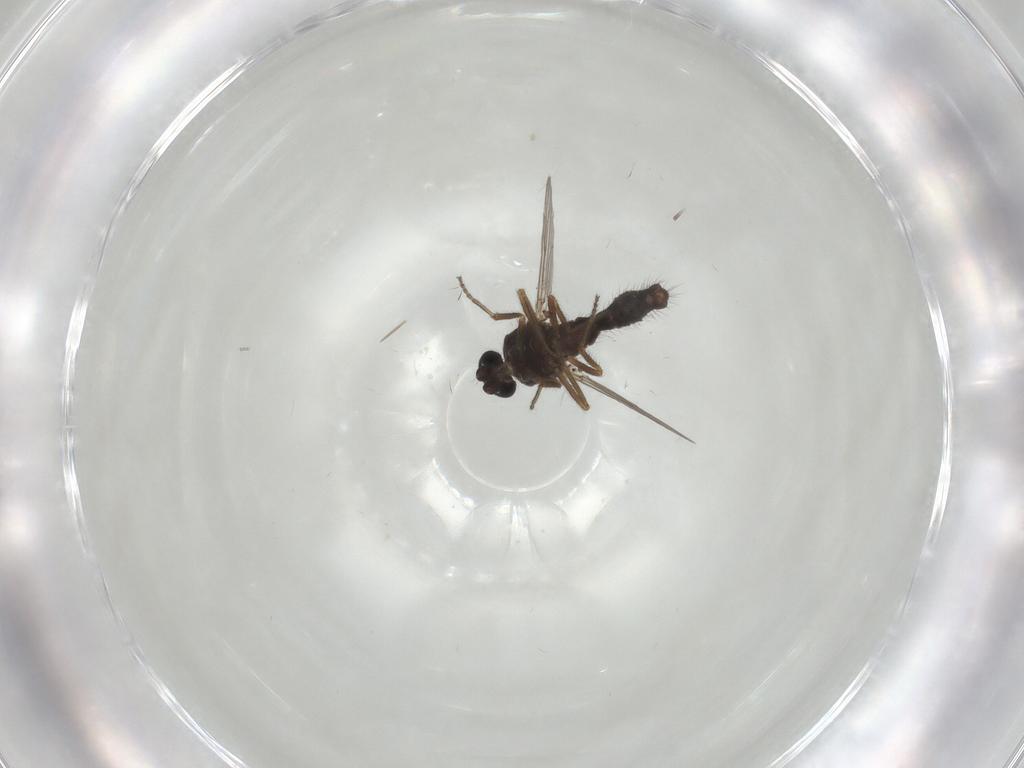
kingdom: Animalia
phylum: Arthropoda
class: Insecta
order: Diptera
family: Ceratopogonidae
